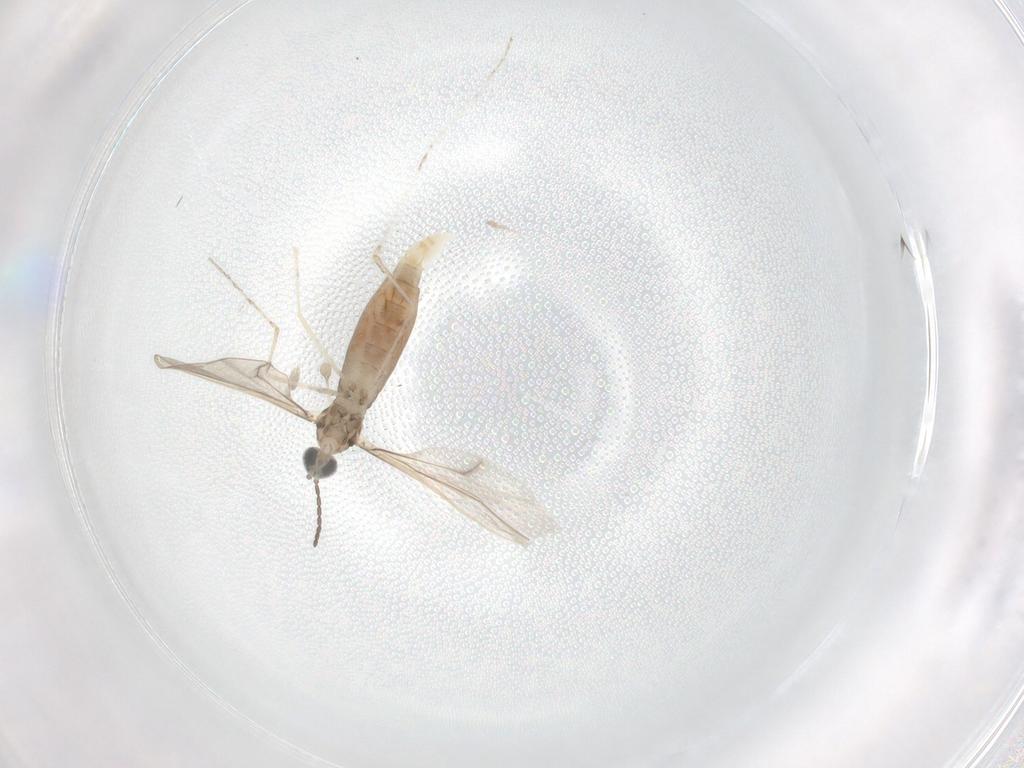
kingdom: Animalia
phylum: Arthropoda
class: Insecta
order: Diptera
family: Cecidomyiidae
